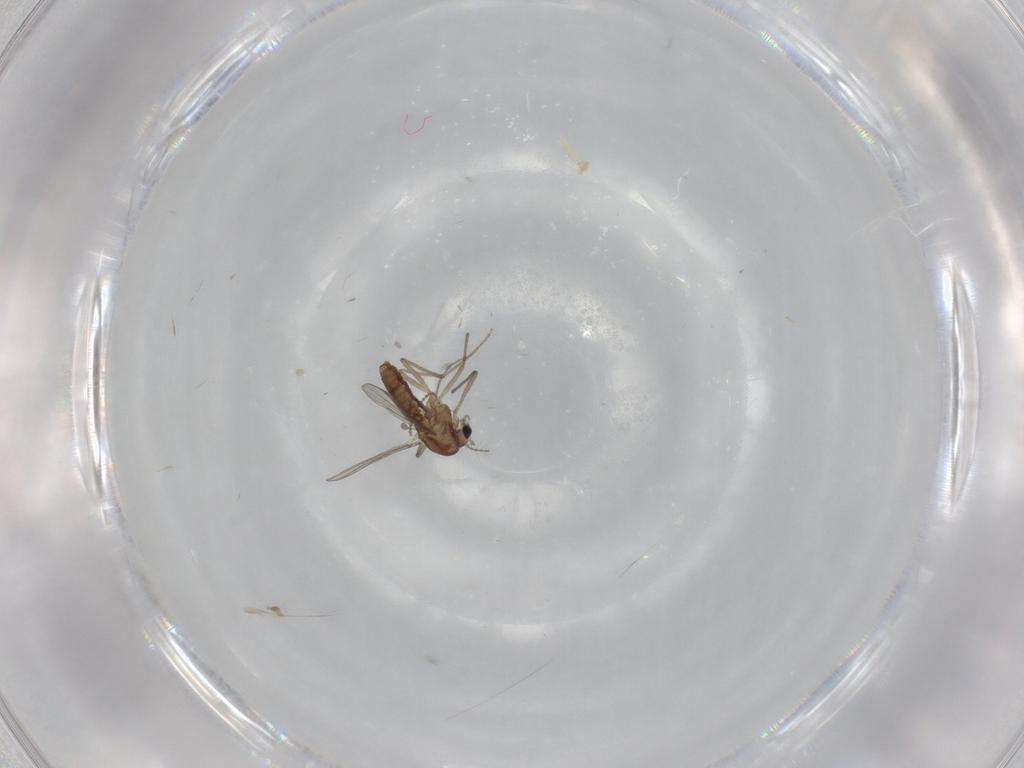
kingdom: Animalia
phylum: Arthropoda
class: Insecta
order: Diptera
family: Chironomidae
